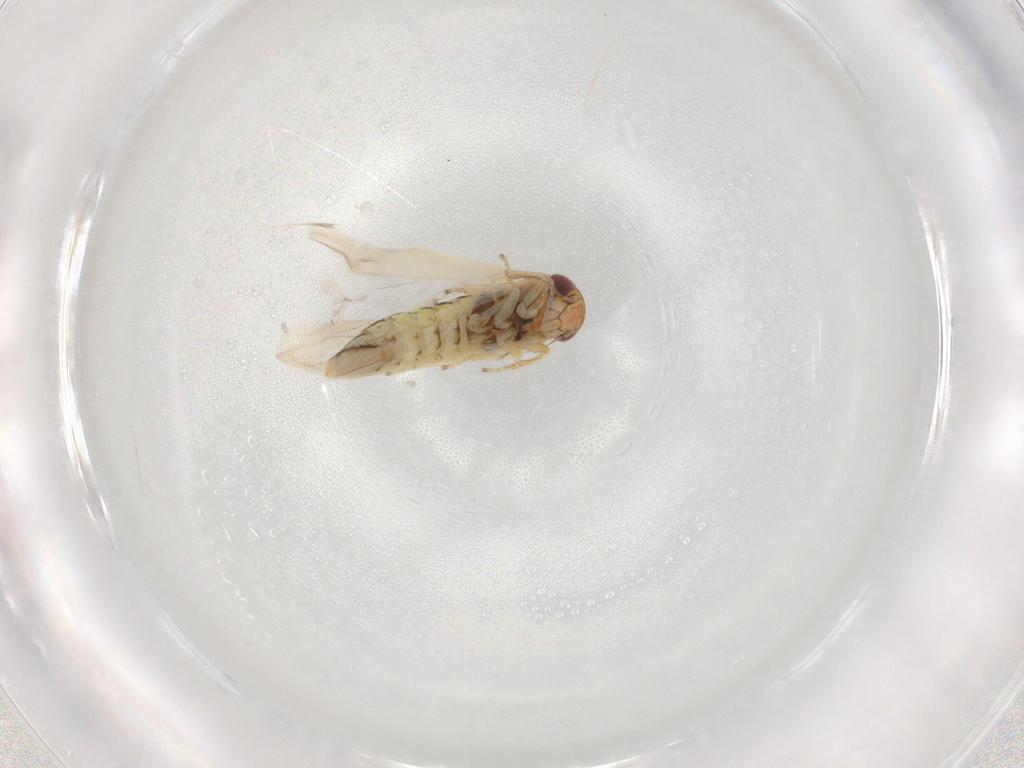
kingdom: Animalia
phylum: Arthropoda
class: Insecta
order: Hemiptera
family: Cicadellidae
